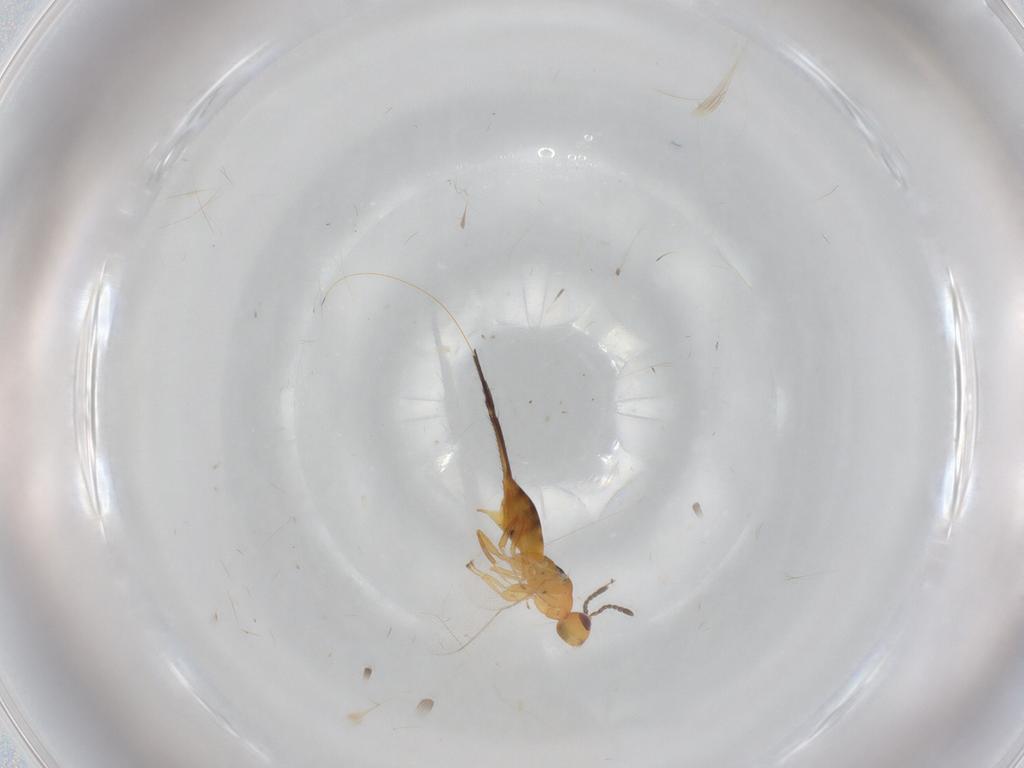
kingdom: Animalia
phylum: Arthropoda
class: Insecta
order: Hymenoptera
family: Pteromalidae
